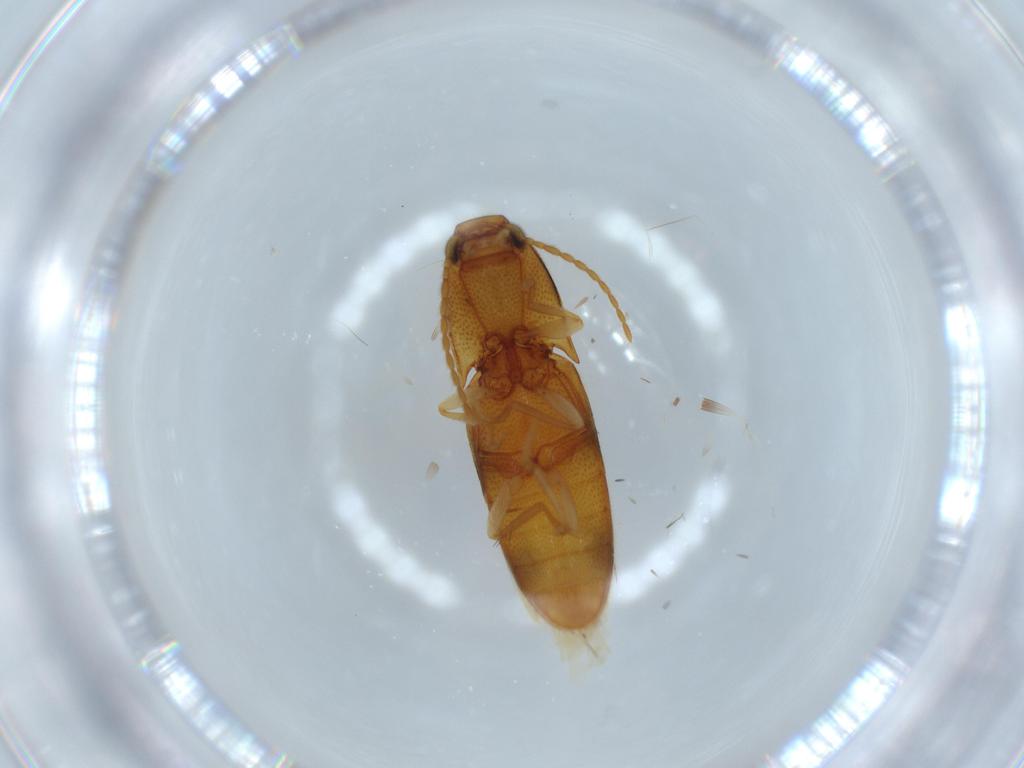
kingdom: Animalia
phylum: Arthropoda
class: Insecta
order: Coleoptera
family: Elateridae
